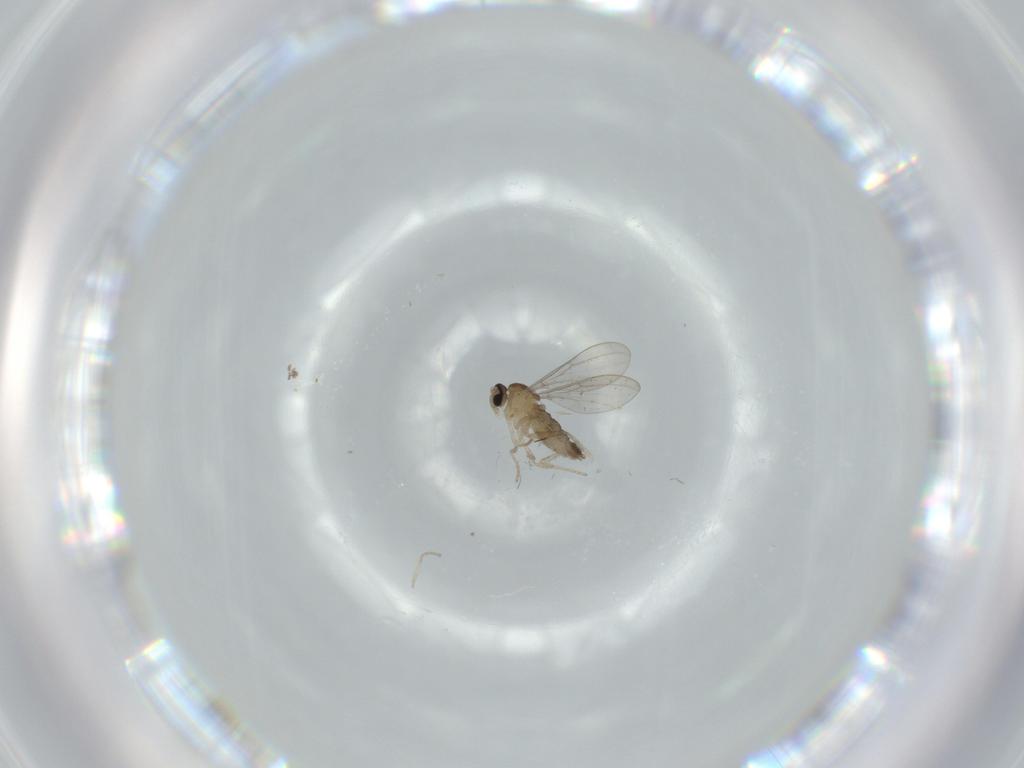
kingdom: Animalia
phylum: Arthropoda
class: Insecta
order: Diptera
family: Cecidomyiidae
